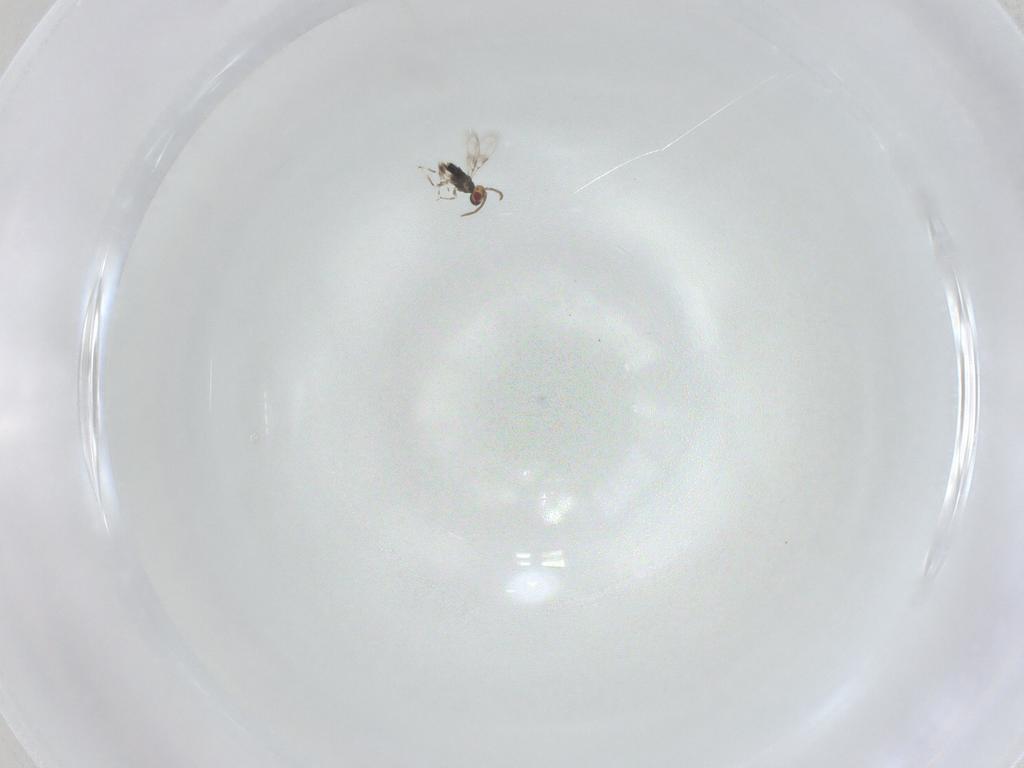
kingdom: Animalia
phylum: Arthropoda
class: Insecta
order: Hymenoptera
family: Azotidae
